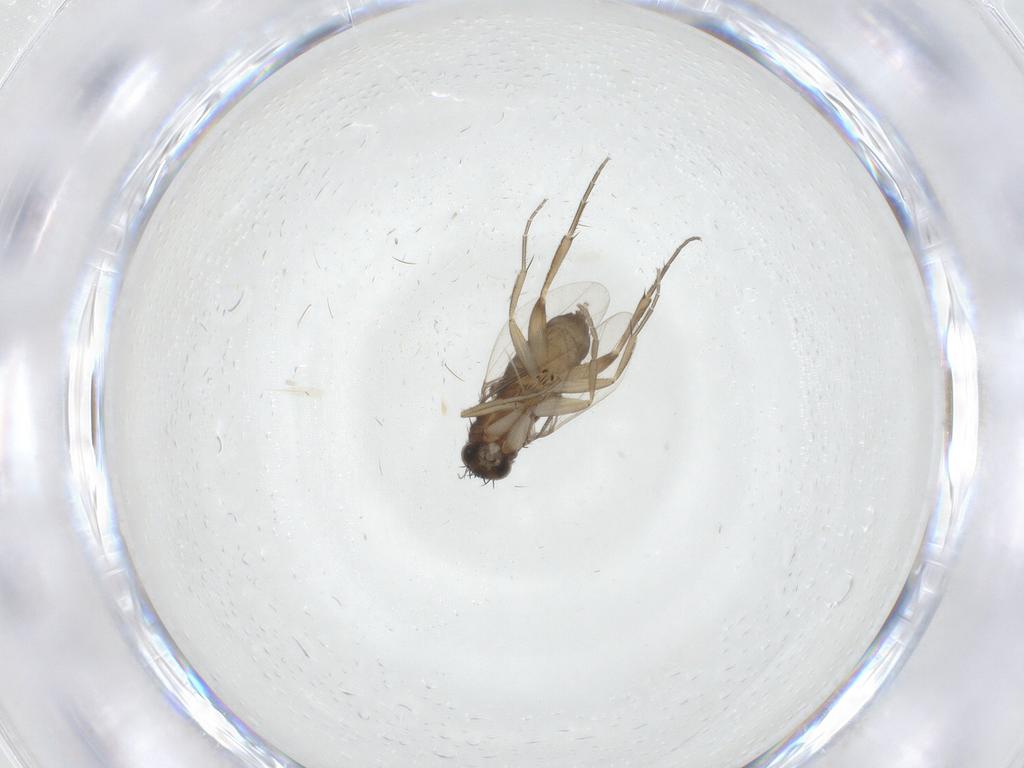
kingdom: Animalia
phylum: Arthropoda
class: Insecta
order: Diptera
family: Phoridae
